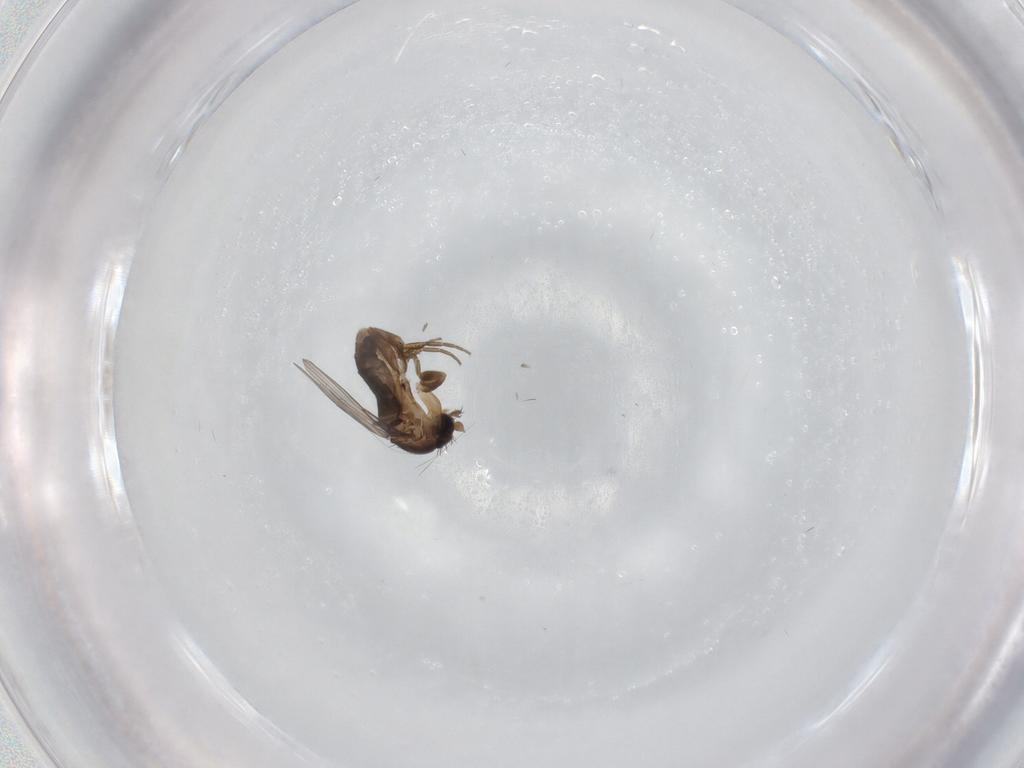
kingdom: Animalia
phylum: Arthropoda
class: Insecta
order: Diptera
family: Phoridae
